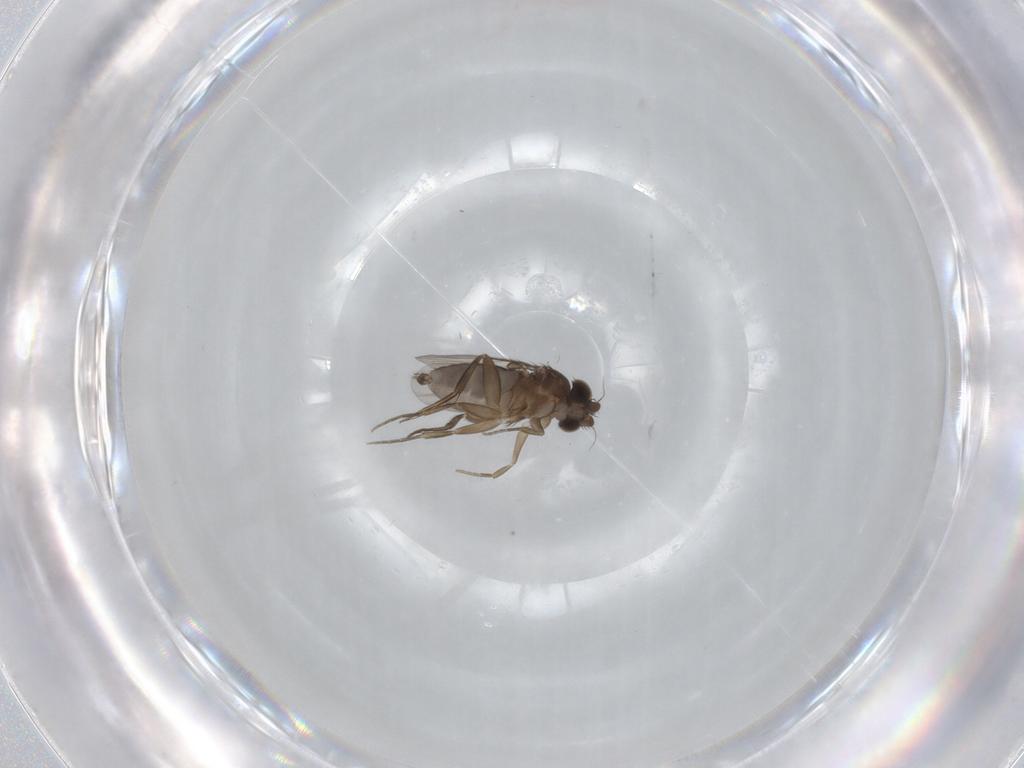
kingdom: Animalia
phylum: Arthropoda
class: Insecta
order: Diptera
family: Phoridae
